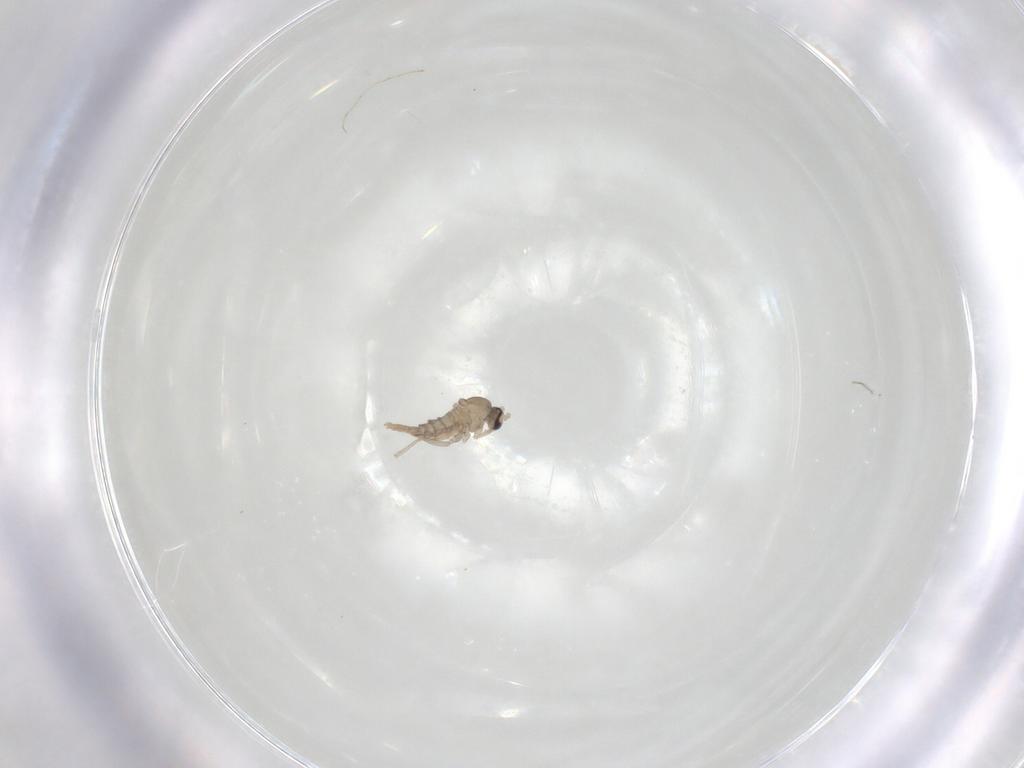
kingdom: Animalia
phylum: Arthropoda
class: Insecta
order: Diptera
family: Cecidomyiidae
